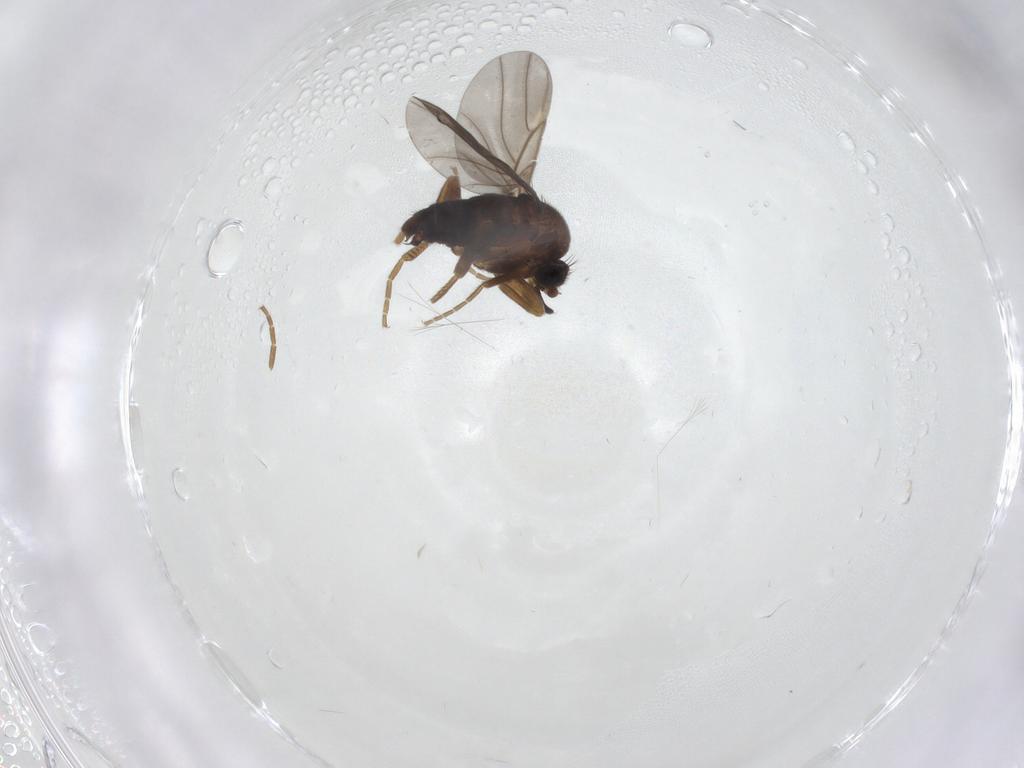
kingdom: Animalia
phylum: Arthropoda
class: Insecta
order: Diptera
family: Phoridae
